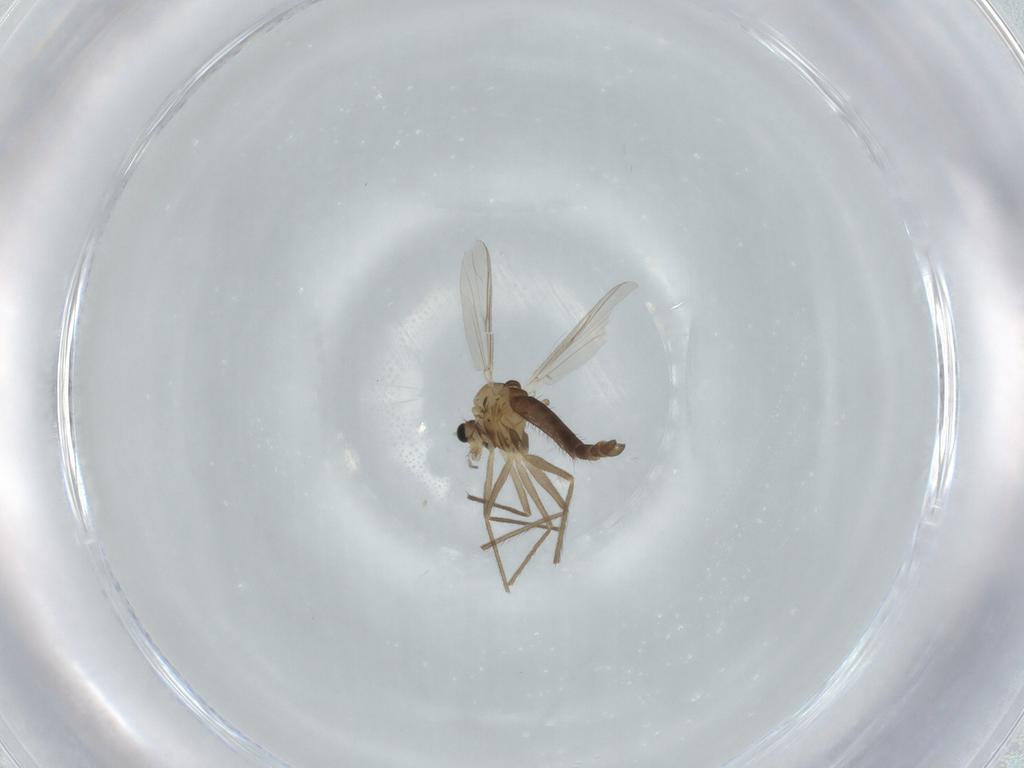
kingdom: Animalia
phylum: Arthropoda
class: Insecta
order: Diptera
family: Chironomidae
